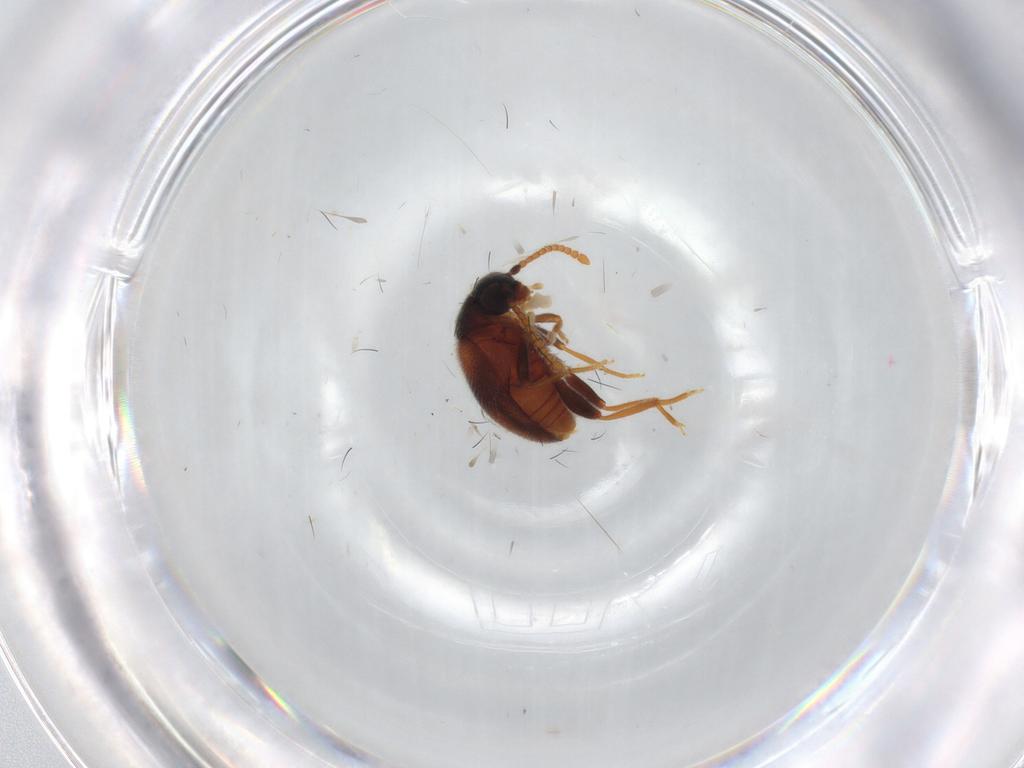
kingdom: Animalia
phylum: Arthropoda
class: Insecta
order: Coleoptera
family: Aderidae
